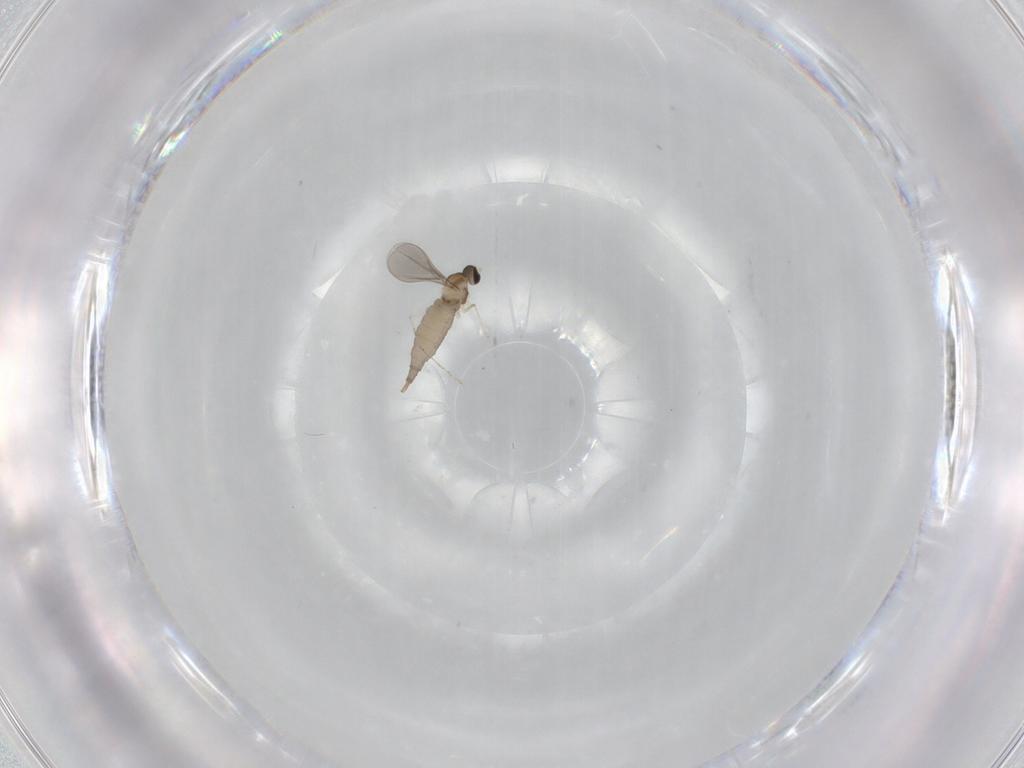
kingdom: Animalia
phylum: Arthropoda
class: Insecta
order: Diptera
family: Cecidomyiidae
